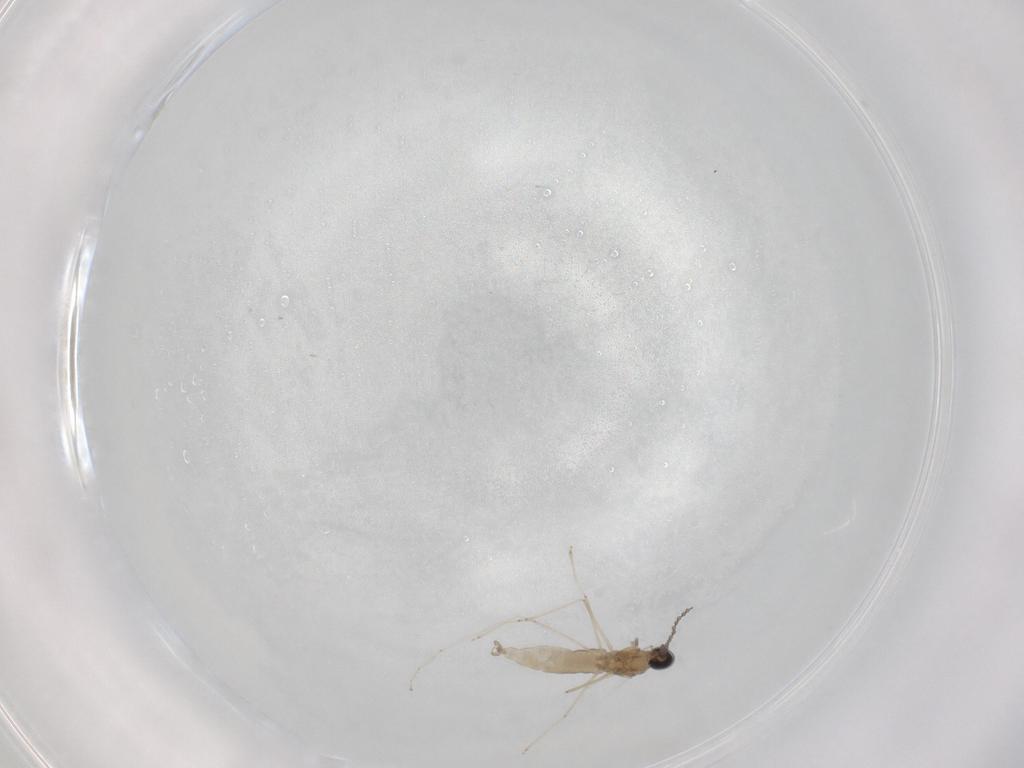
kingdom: Animalia
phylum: Arthropoda
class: Insecta
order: Diptera
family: Cecidomyiidae
